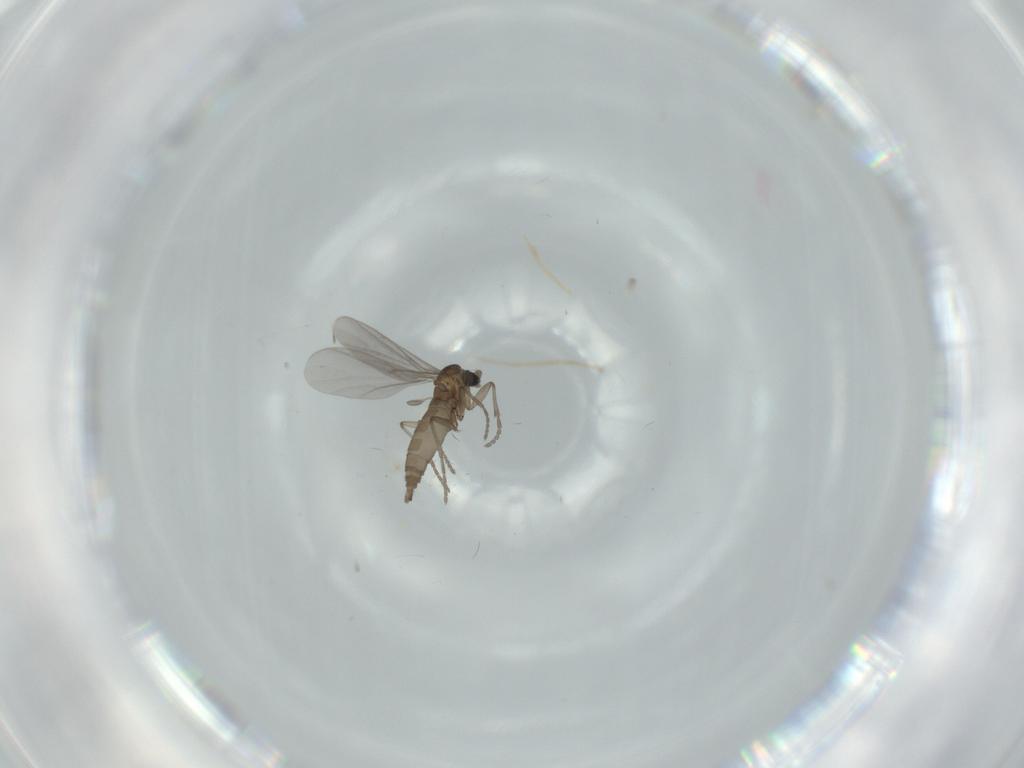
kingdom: Animalia
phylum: Arthropoda
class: Insecta
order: Diptera
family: Sciaridae
